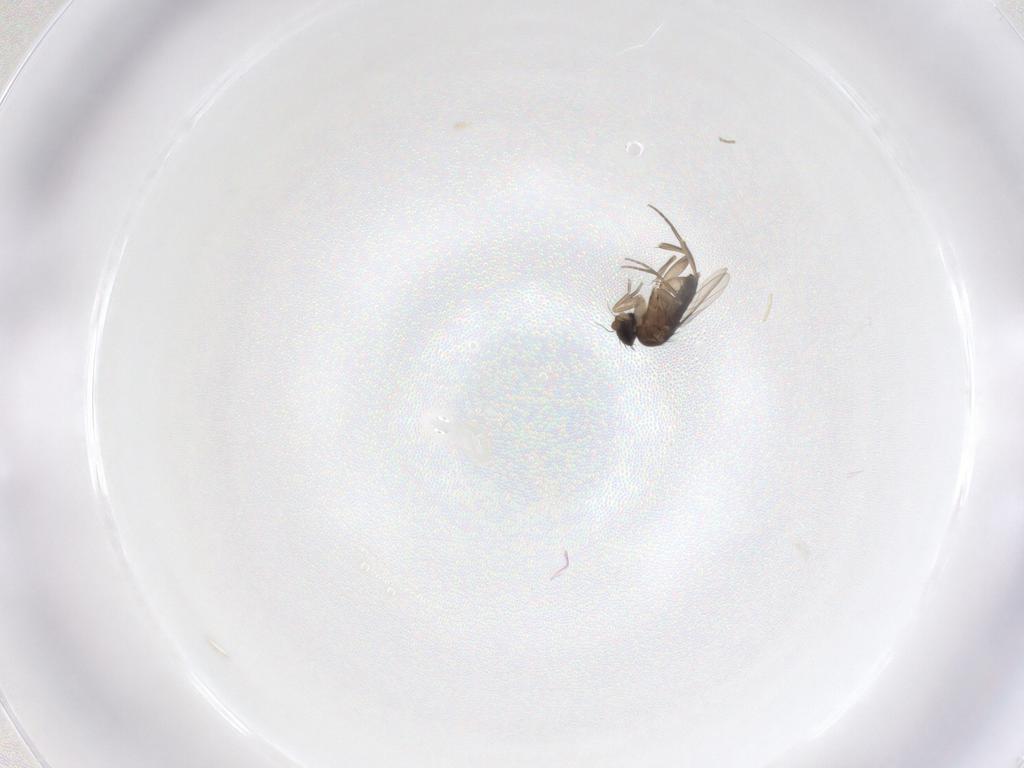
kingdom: Animalia
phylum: Arthropoda
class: Insecta
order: Diptera
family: Phoridae
